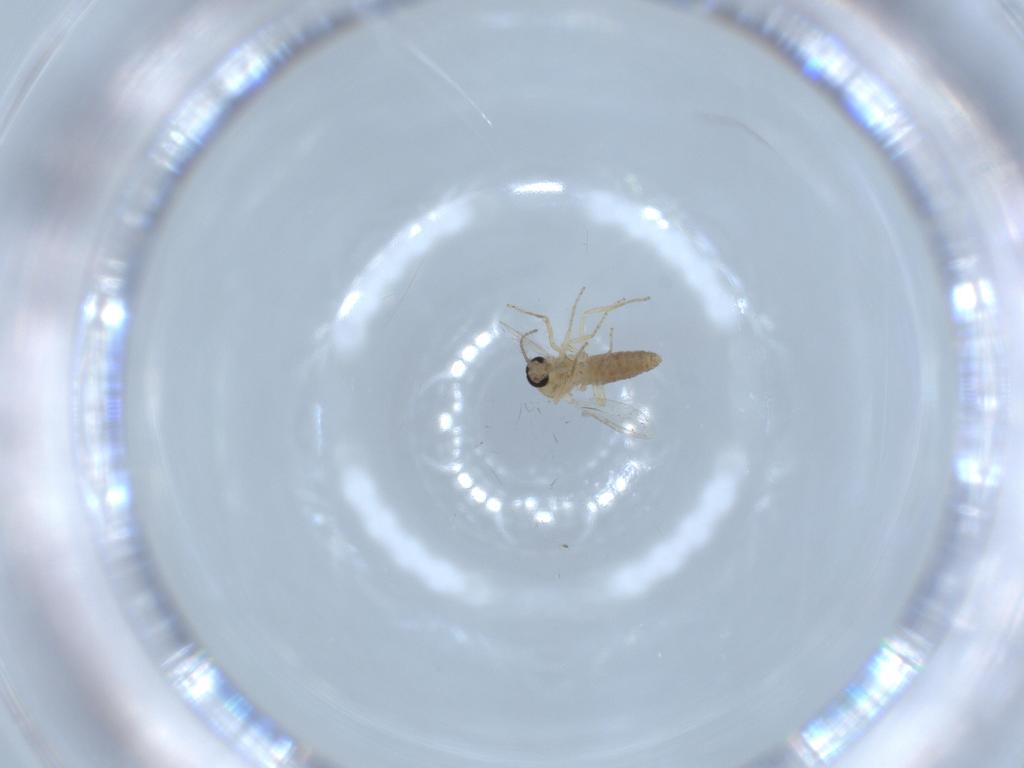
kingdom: Animalia
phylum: Arthropoda
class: Insecta
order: Diptera
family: Ceratopogonidae
